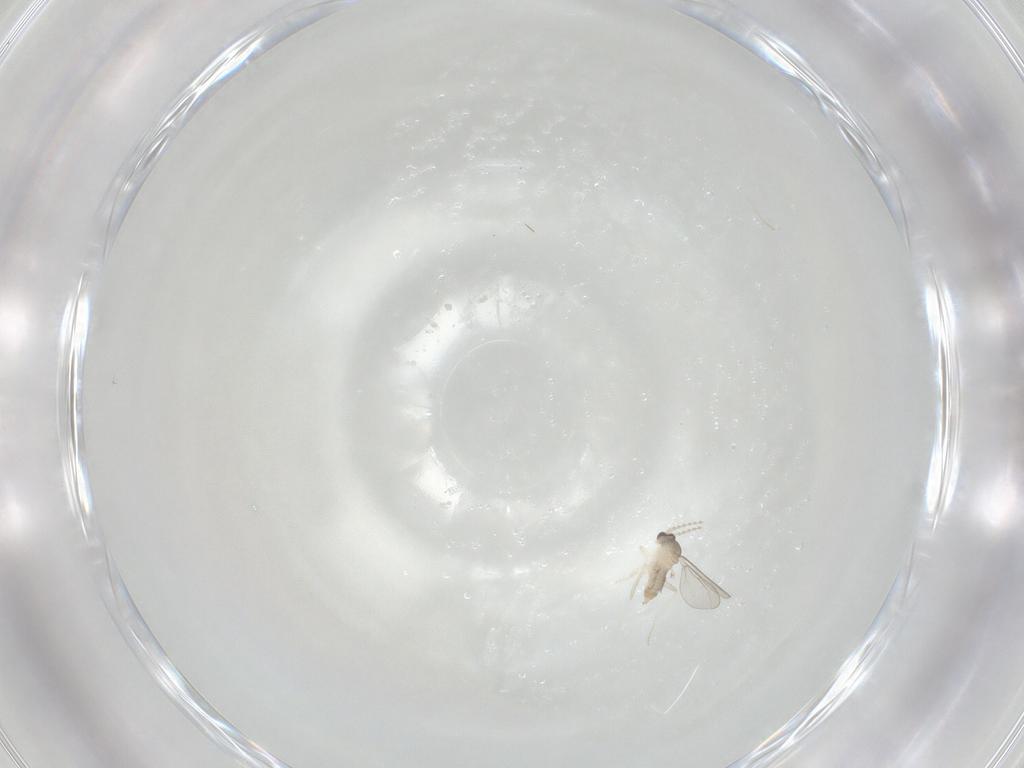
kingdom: Animalia
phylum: Arthropoda
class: Insecta
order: Diptera
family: Cecidomyiidae
